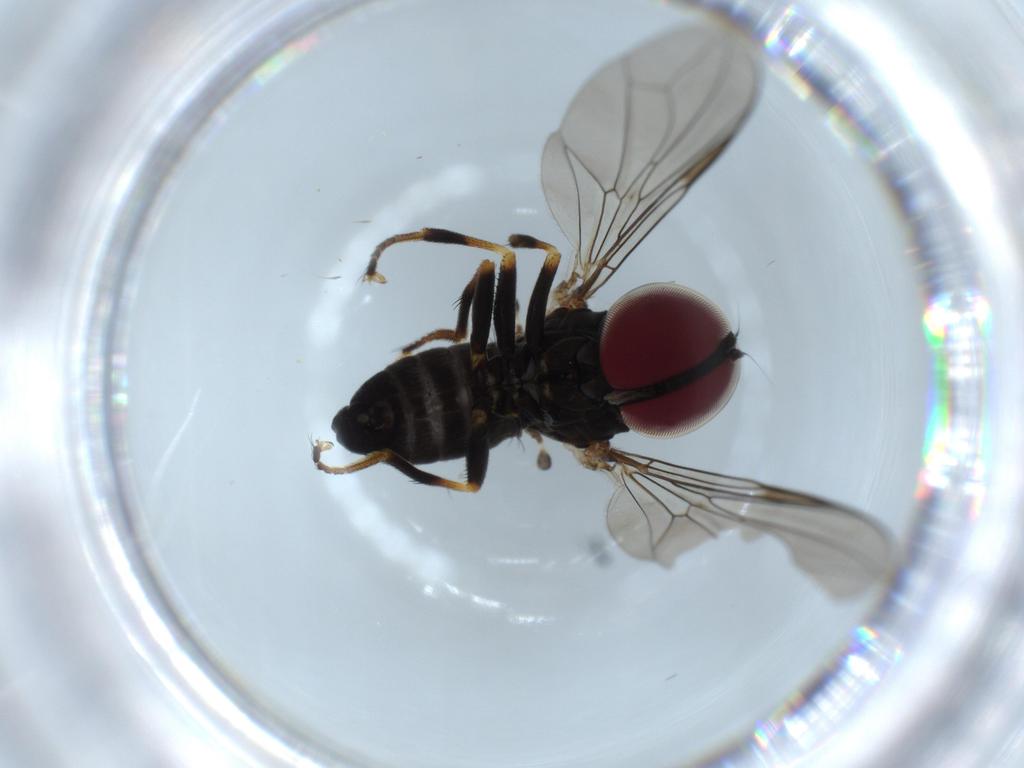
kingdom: Animalia
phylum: Arthropoda
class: Insecta
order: Diptera
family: Pipunculidae
